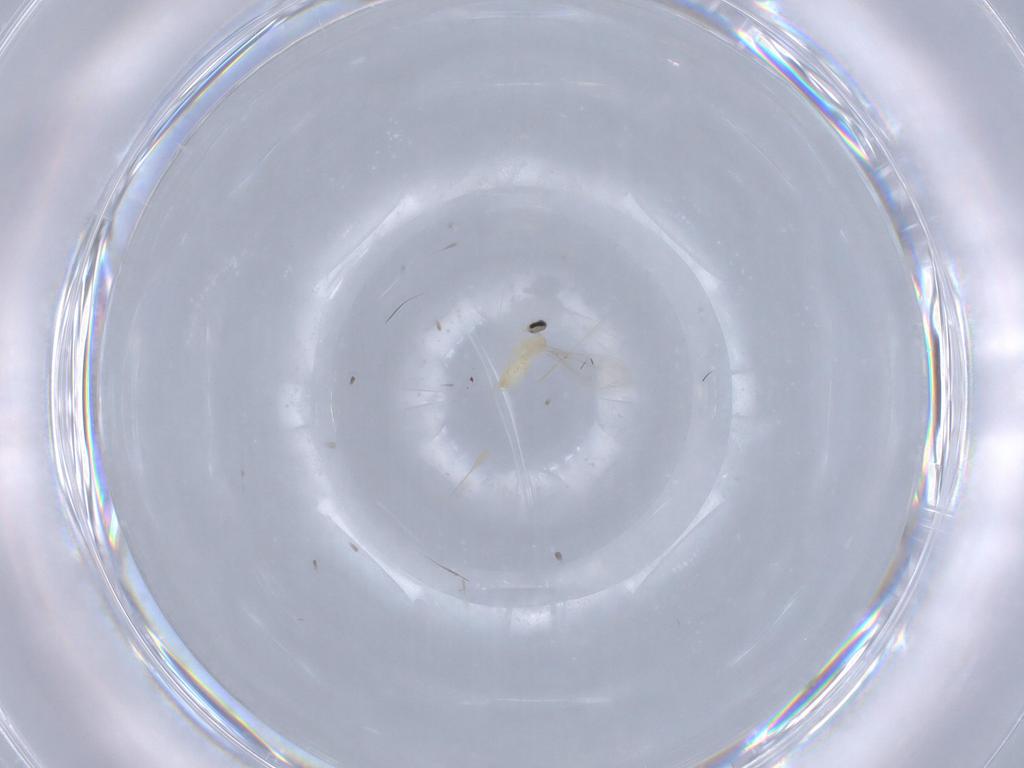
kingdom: Animalia
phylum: Arthropoda
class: Insecta
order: Diptera
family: Cecidomyiidae
